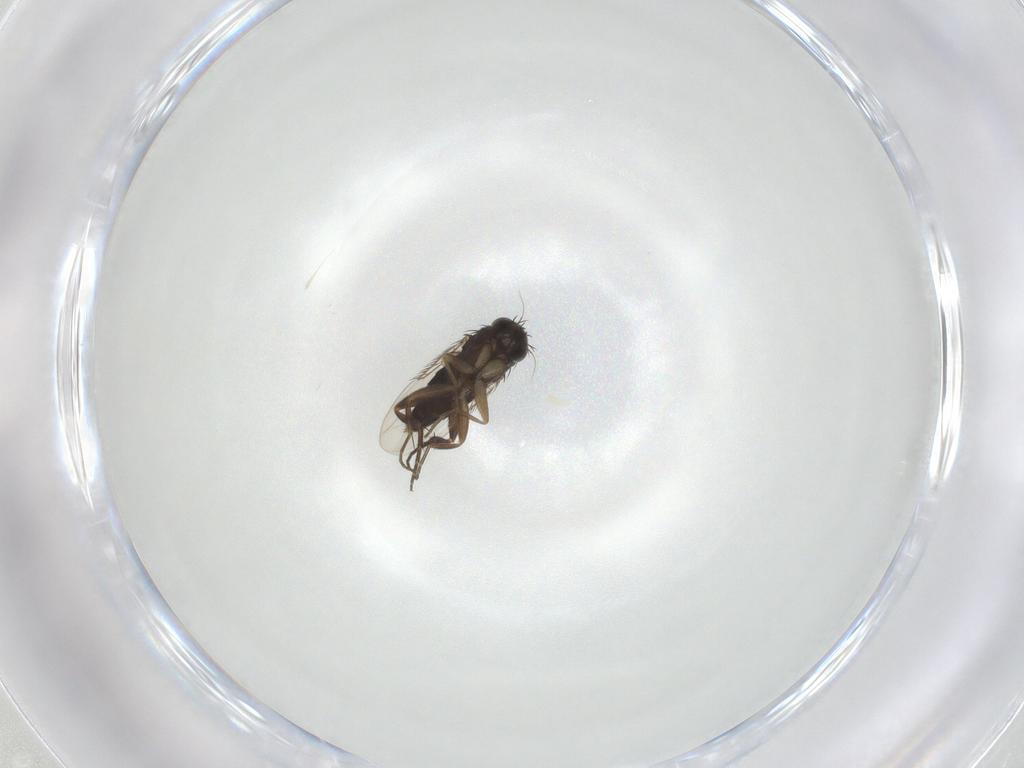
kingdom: Animalia
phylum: Arthropoda
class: Insecta
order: Diptera
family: Phoridae
